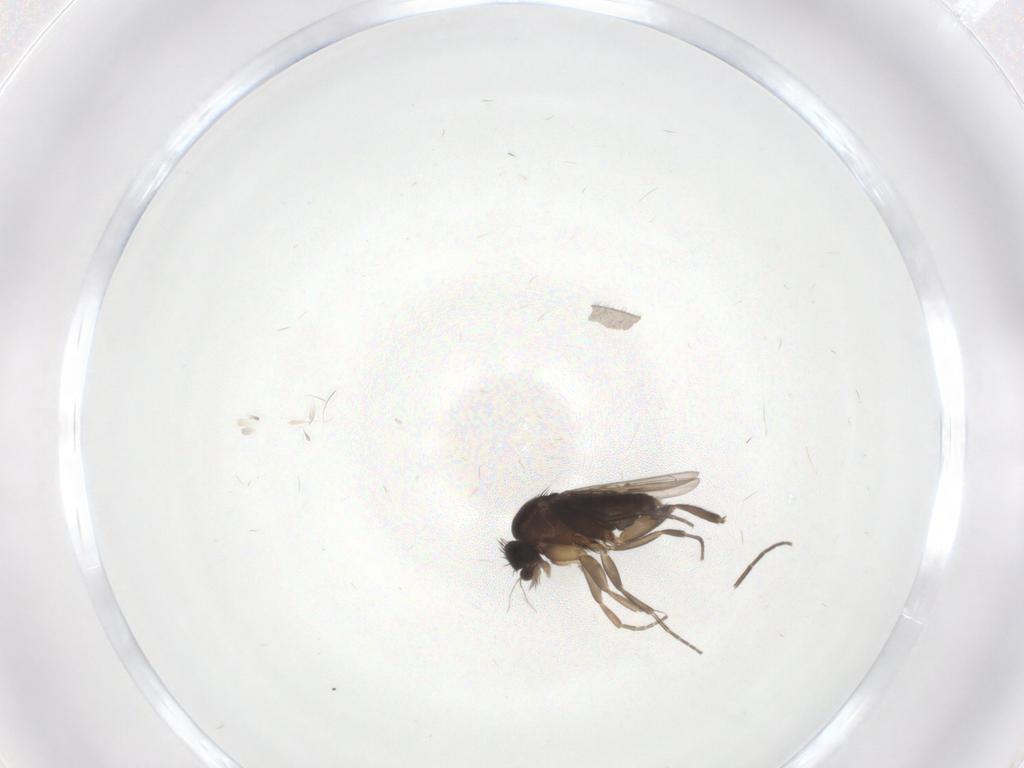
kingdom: Animalia
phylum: Arthropoda
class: Insecta
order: Diptera
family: Phoridae
